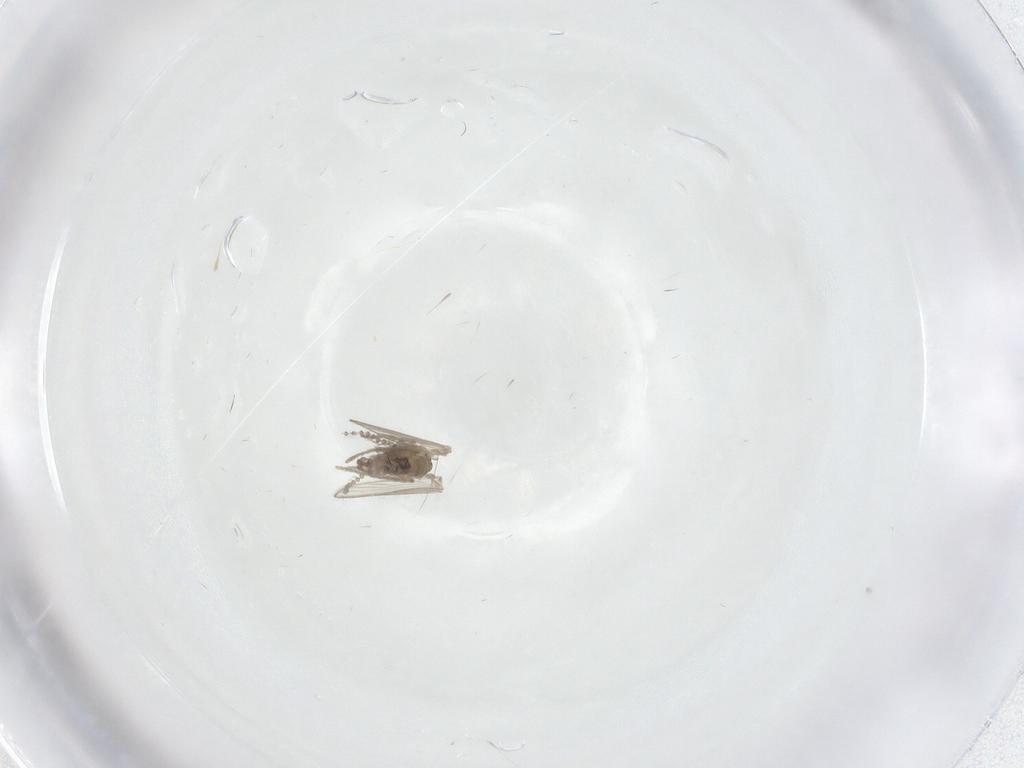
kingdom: Animalia
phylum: Arthropoda
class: Insecta
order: Diptera
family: Psychodidae
